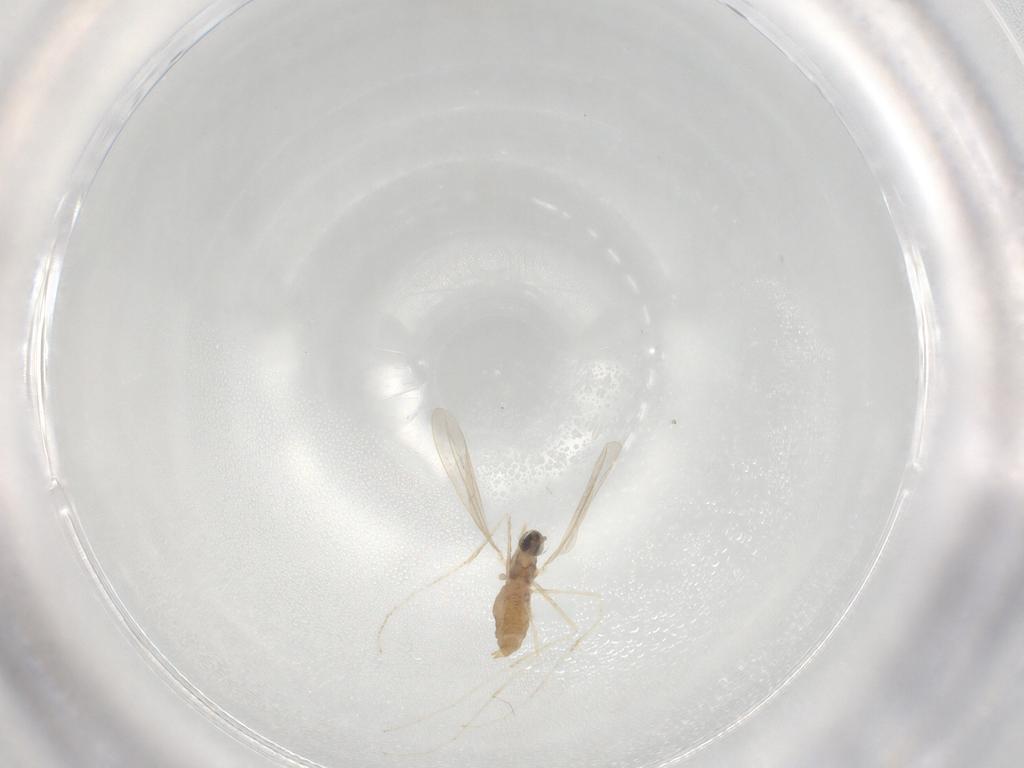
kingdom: Animalia
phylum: Arthropoda
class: Insecta
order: Diptera
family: Cecidomyiidae
